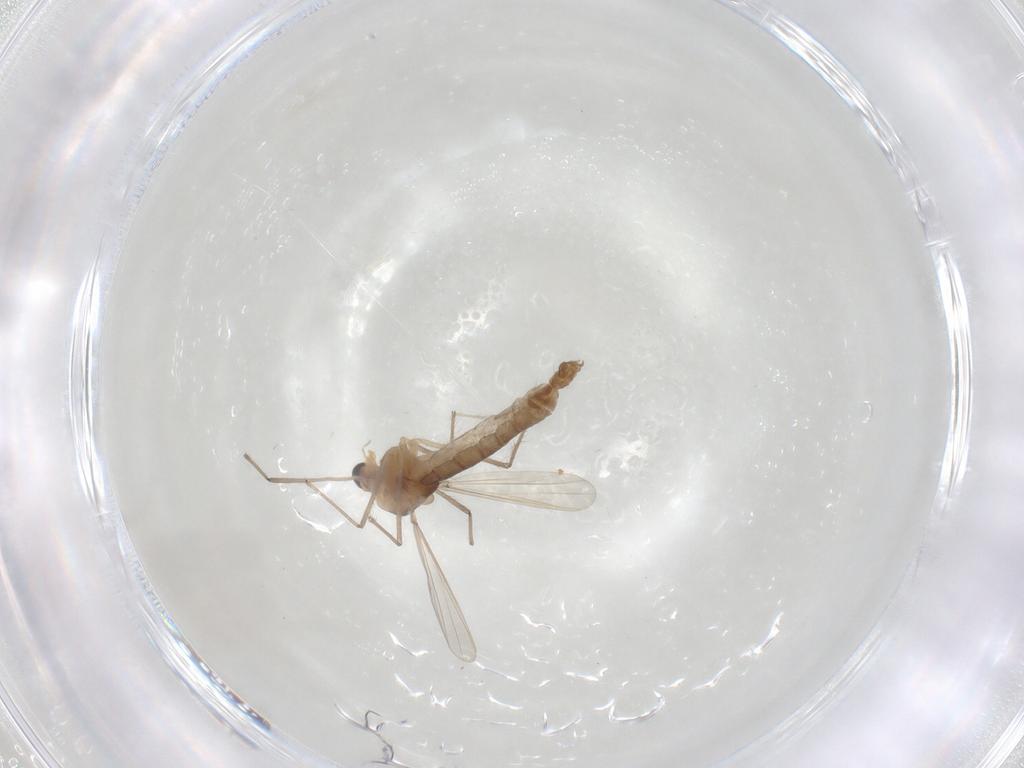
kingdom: Animalia
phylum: Arthropoda
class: Insecta
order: Diptera
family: Chironomidae
